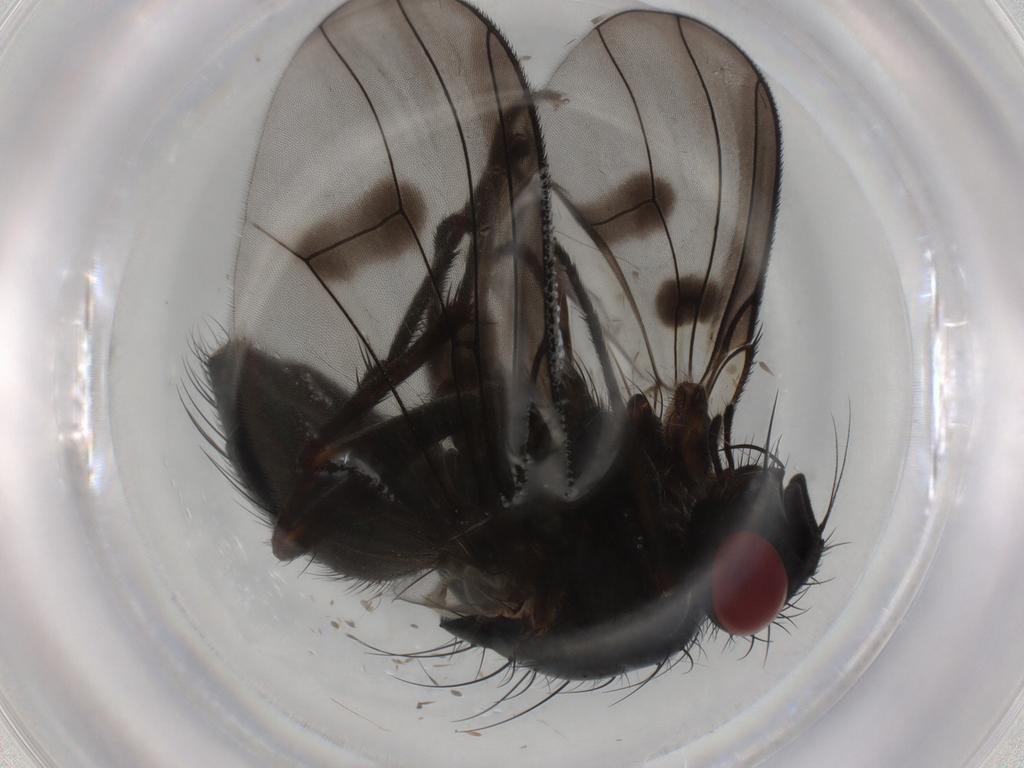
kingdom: Animalia
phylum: Arthropoda
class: Insecta
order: Diptera
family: Muscidae
